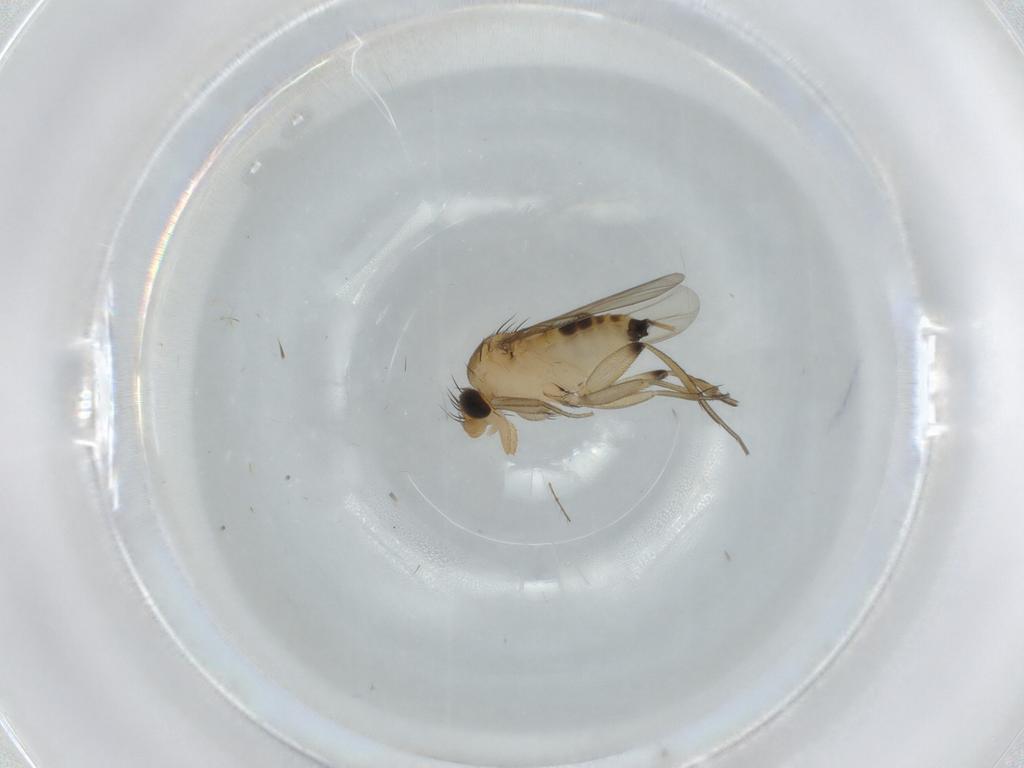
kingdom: Animalia
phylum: Arthropoda
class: Insecta
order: Diptera
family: Phoridae
